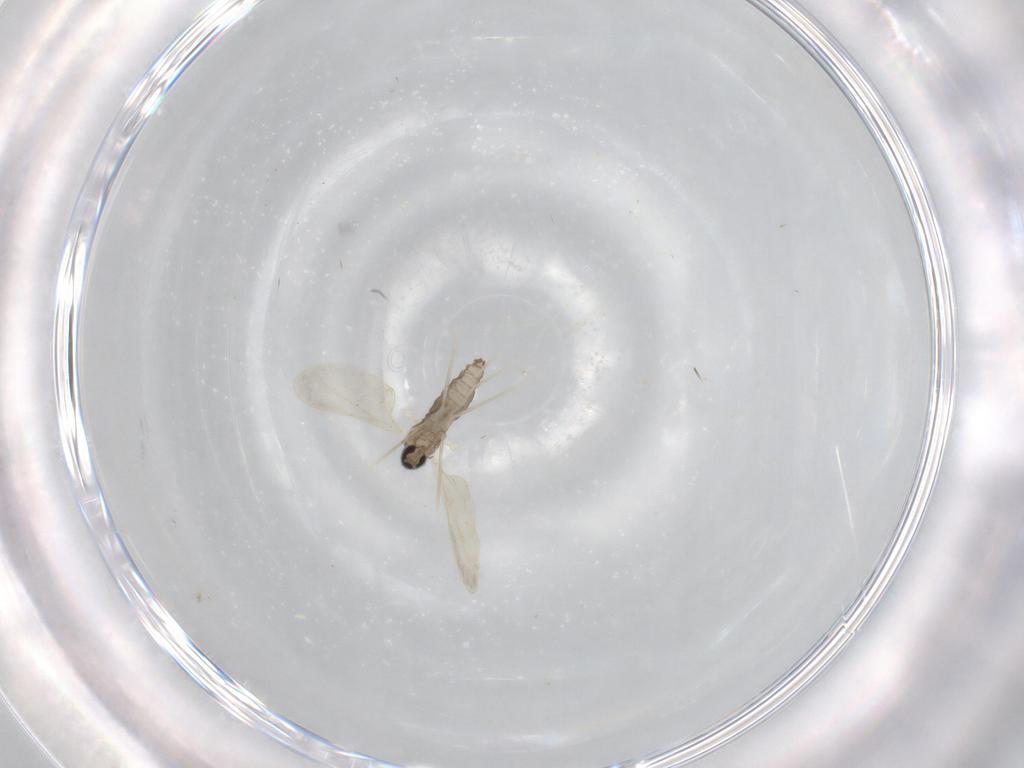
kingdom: Animalia
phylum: Arthropoda
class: Insecta
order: Diptera
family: Cecidomyiidae
